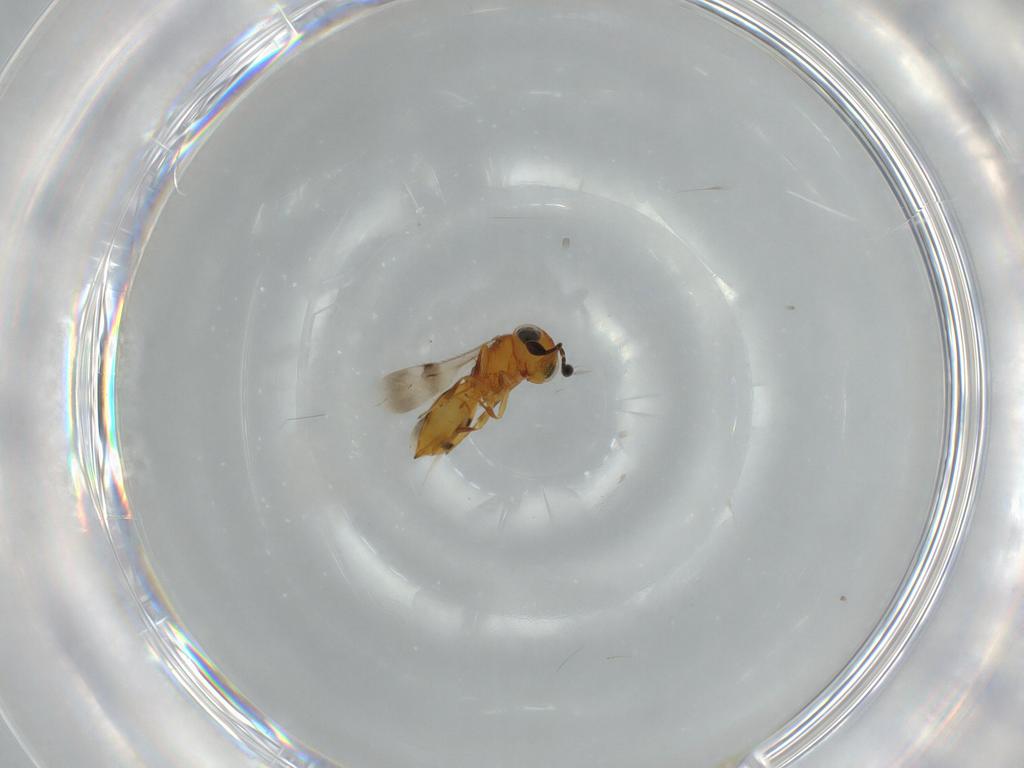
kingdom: Animalia
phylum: Arthropoda
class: Insecta
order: Hymenoptera
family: Scelionidae
